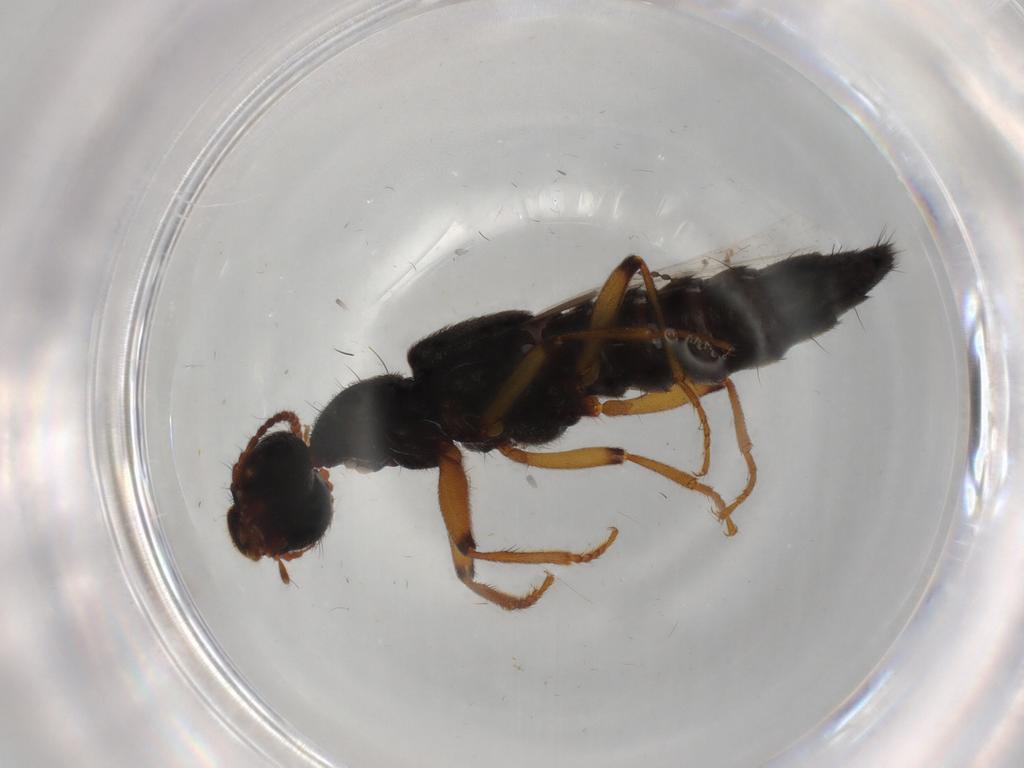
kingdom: Animalia
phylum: Arthropoda
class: Insecta
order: Coleoptera
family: Staphylinidae
